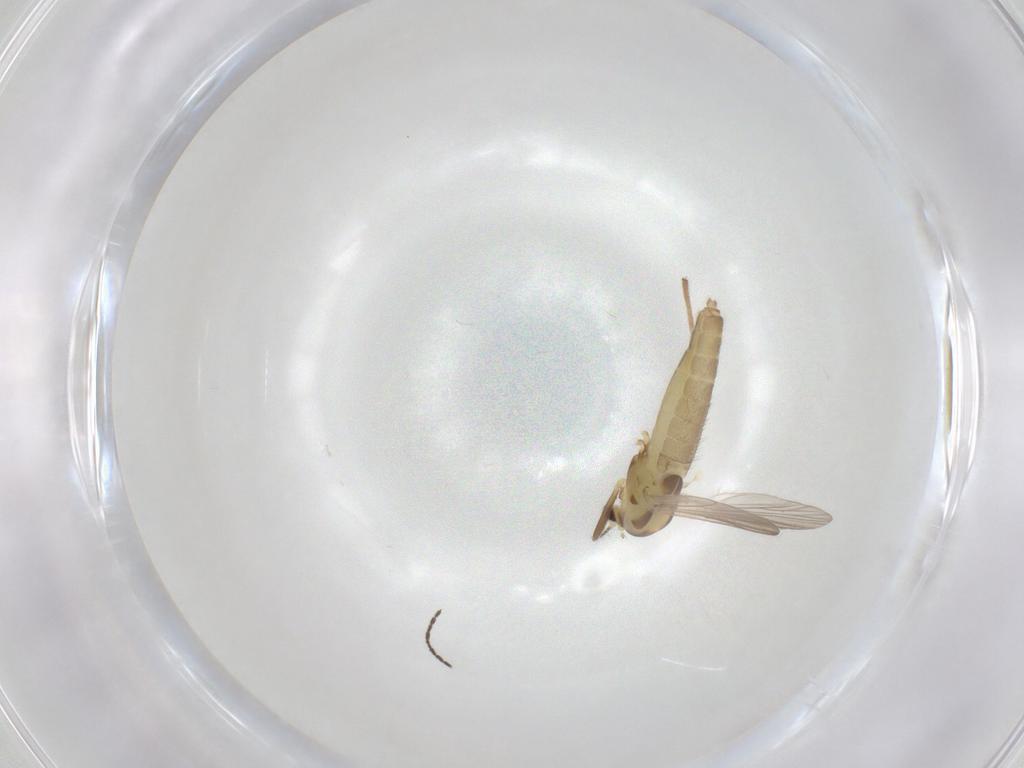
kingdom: Animalia
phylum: Arthropoda
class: Insecta
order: Diptera
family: Chironomidae
